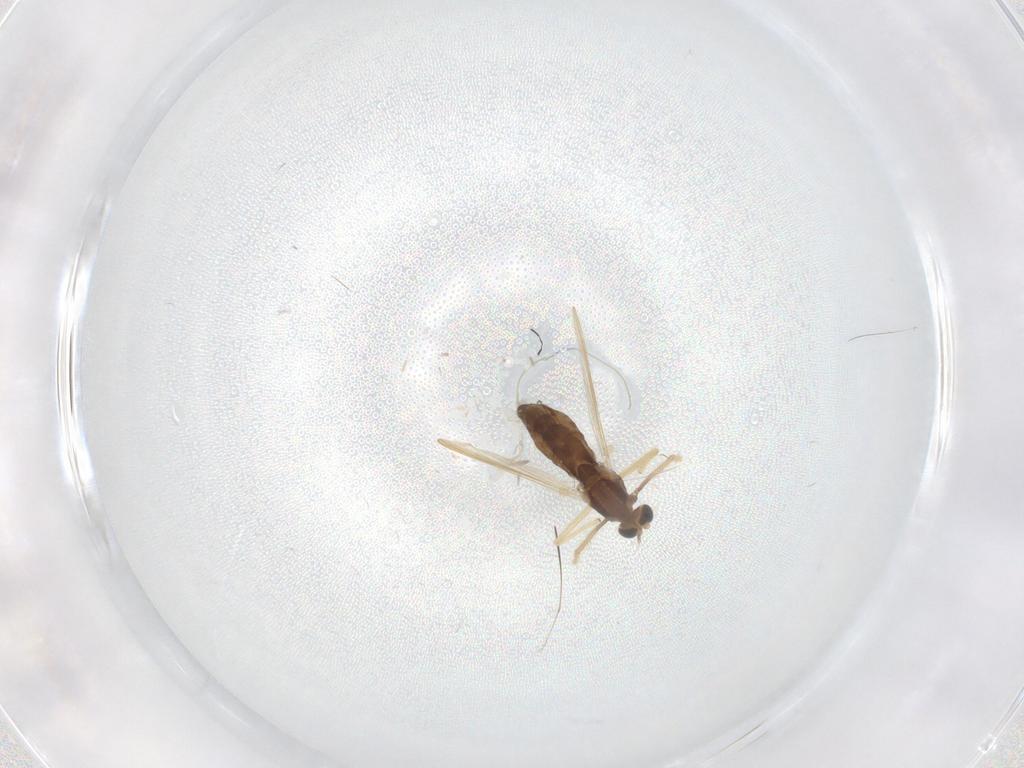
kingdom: Animalia
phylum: Arthropoda
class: Insecta
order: Diptera
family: Chironomidae
